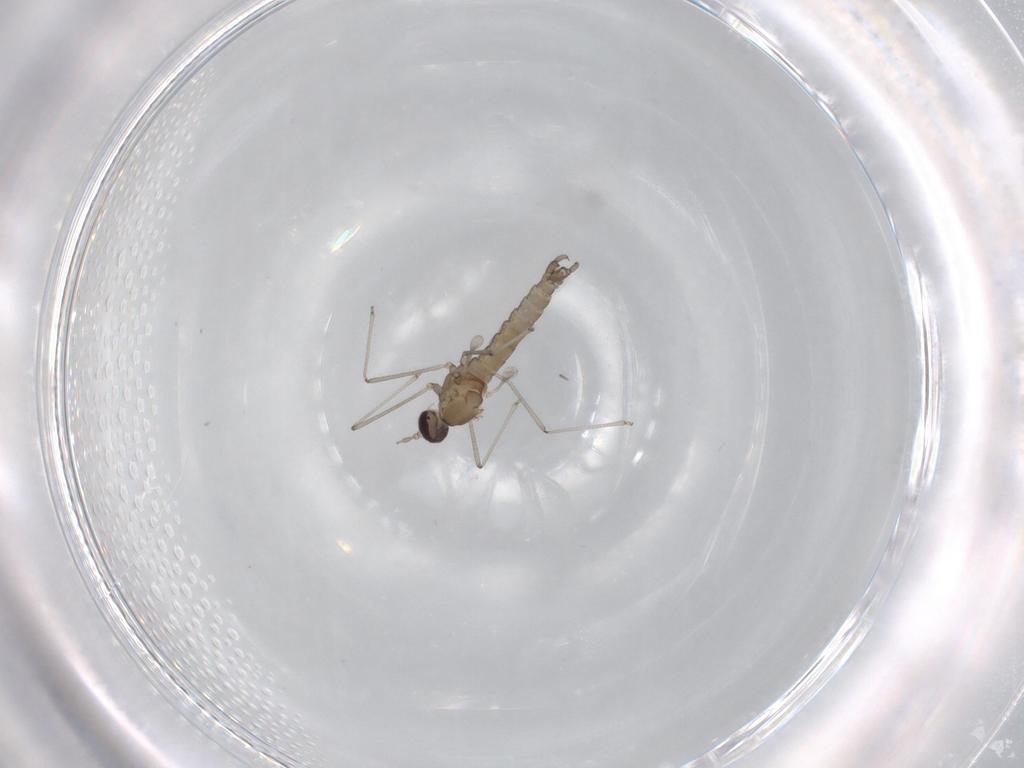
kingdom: Animalia
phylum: Arthropoda
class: Insecta
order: Diptera
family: Cecidomyiidae
